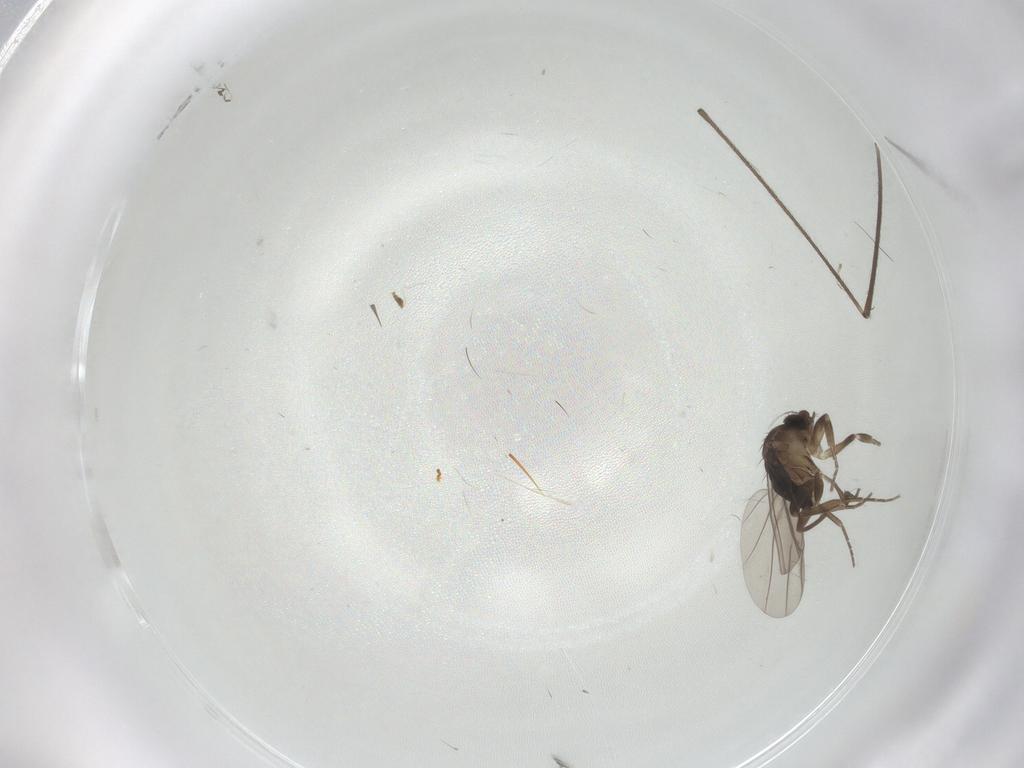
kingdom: Animalia
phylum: Arthropoda
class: Insecta
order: Diptera
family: Limoniidae
